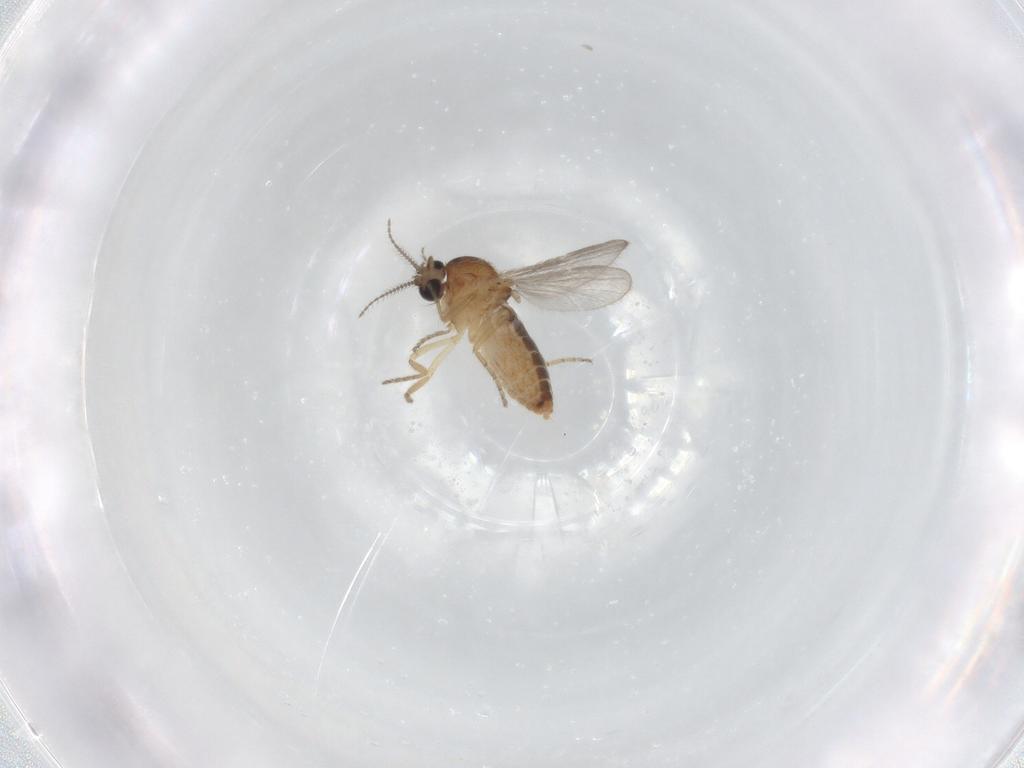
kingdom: Animalia
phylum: Arthropoda
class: Insecta
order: Diptera
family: Ceratopogonidae
